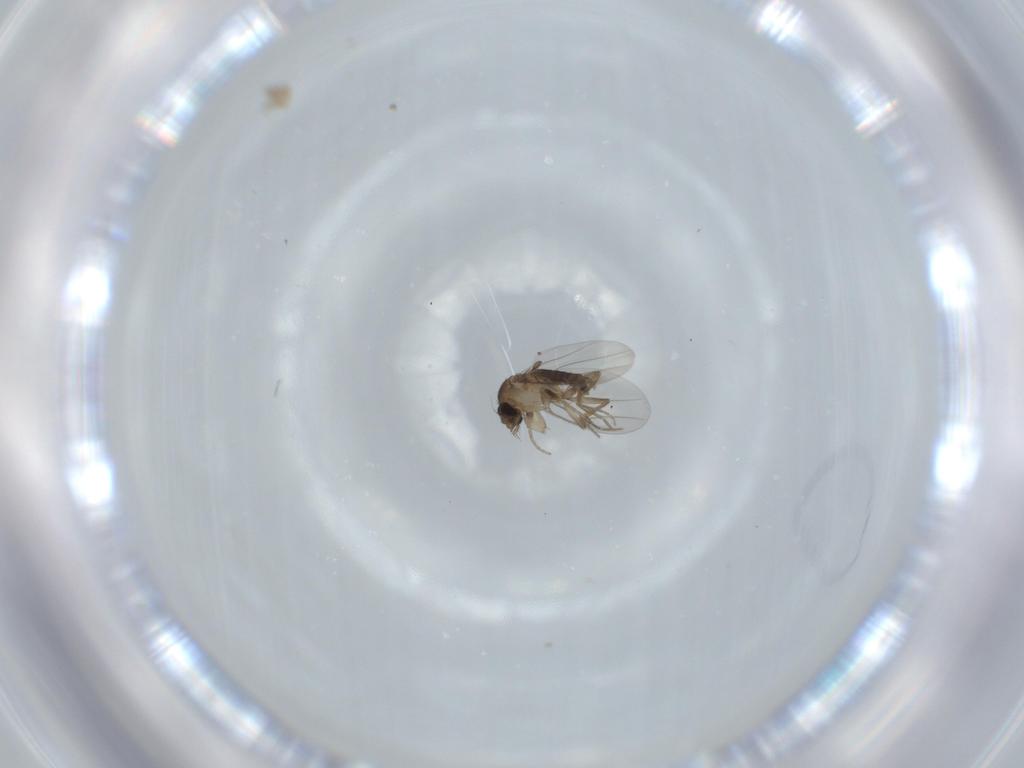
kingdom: Animalia
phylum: Arthropoda
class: Insecta
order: Diptera
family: Phoridae
